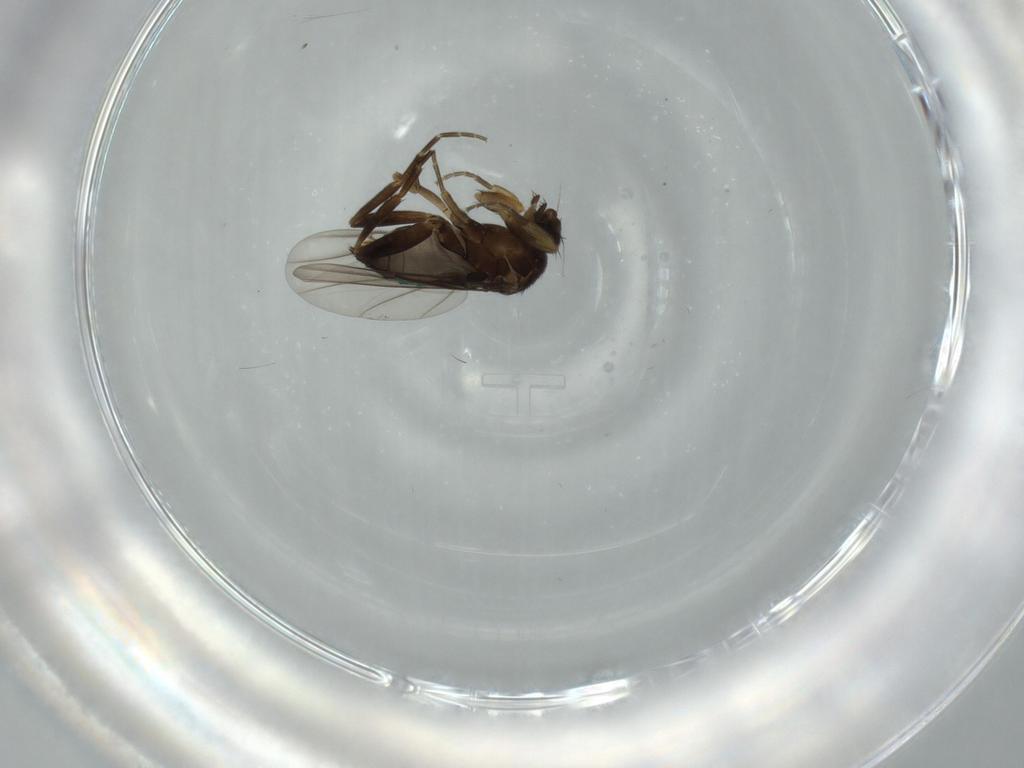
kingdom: Animalia
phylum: Arthropoda
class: Insecta
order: Diptera
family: Phoridae
